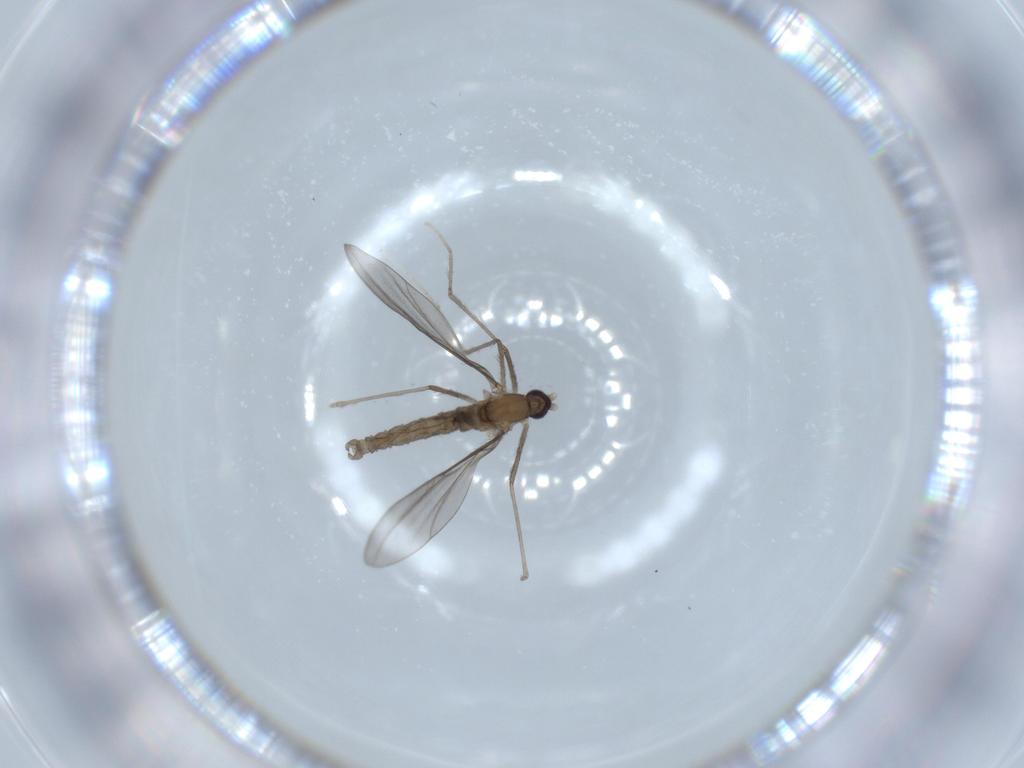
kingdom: Animalia
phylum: Arthropoda
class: Insecta
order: Diptera
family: Cecidomyiidae
